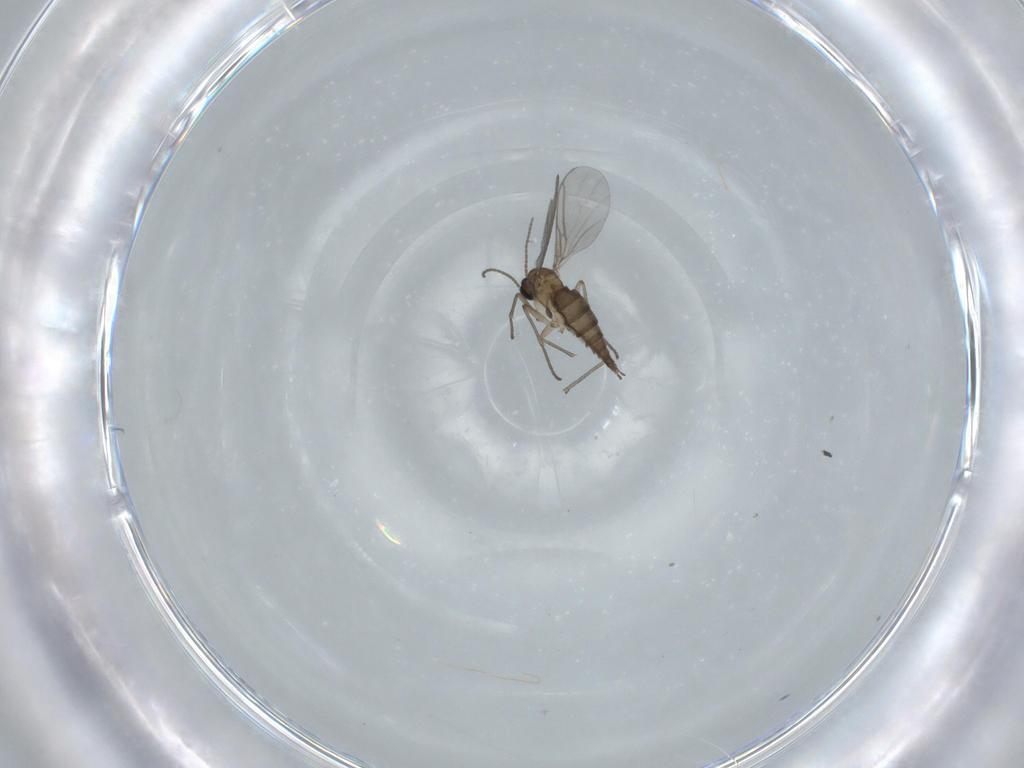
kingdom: Animalia
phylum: Arthropoda
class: Insecta
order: Diptera
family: Sciaridae
